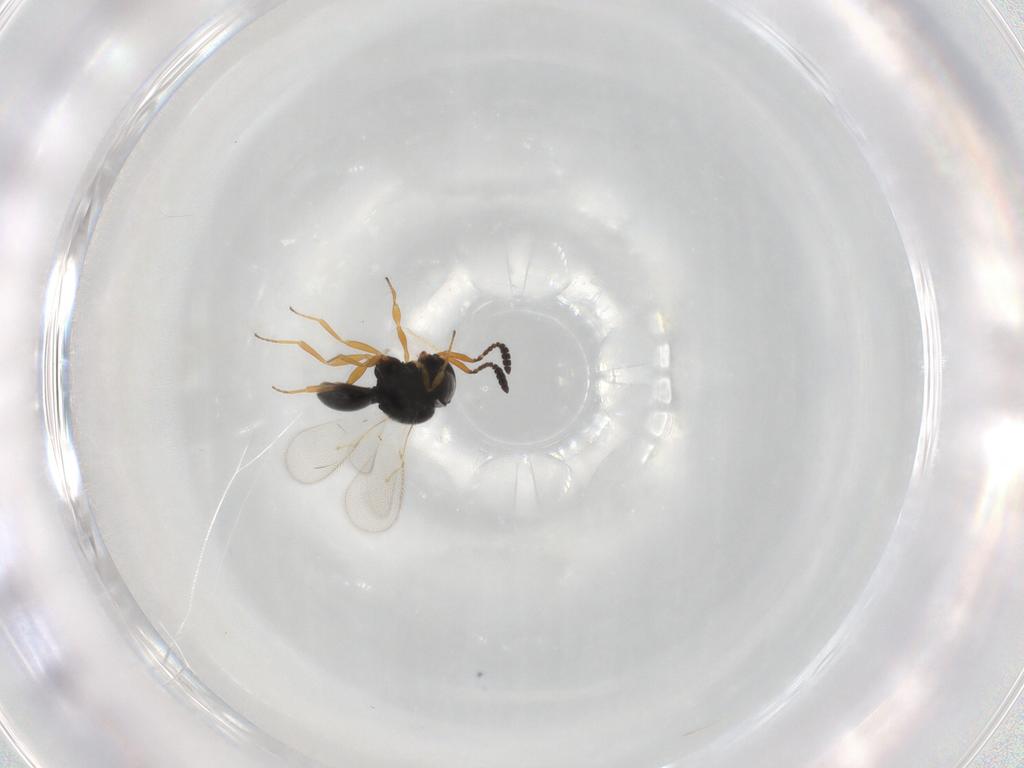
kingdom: Animalia
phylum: Arthropoda
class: Insecta
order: Hymenoptera
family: Scelionidae
